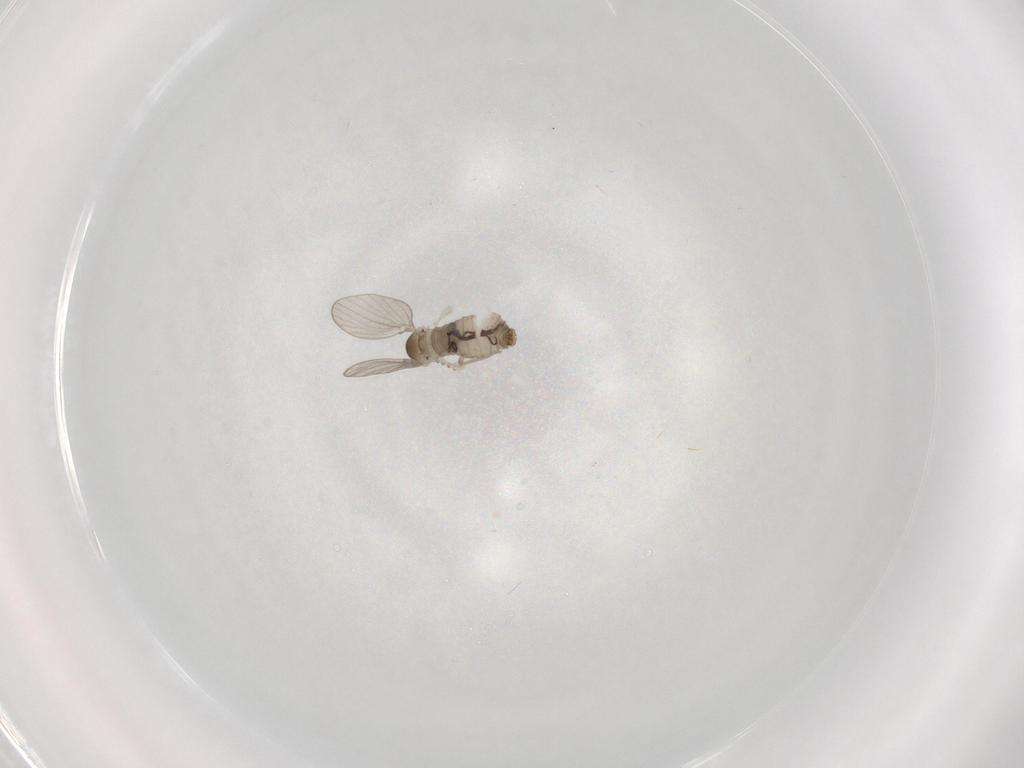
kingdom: Animalia
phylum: Arthropoda
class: Insecta
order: Diptera
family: Psychodidae
